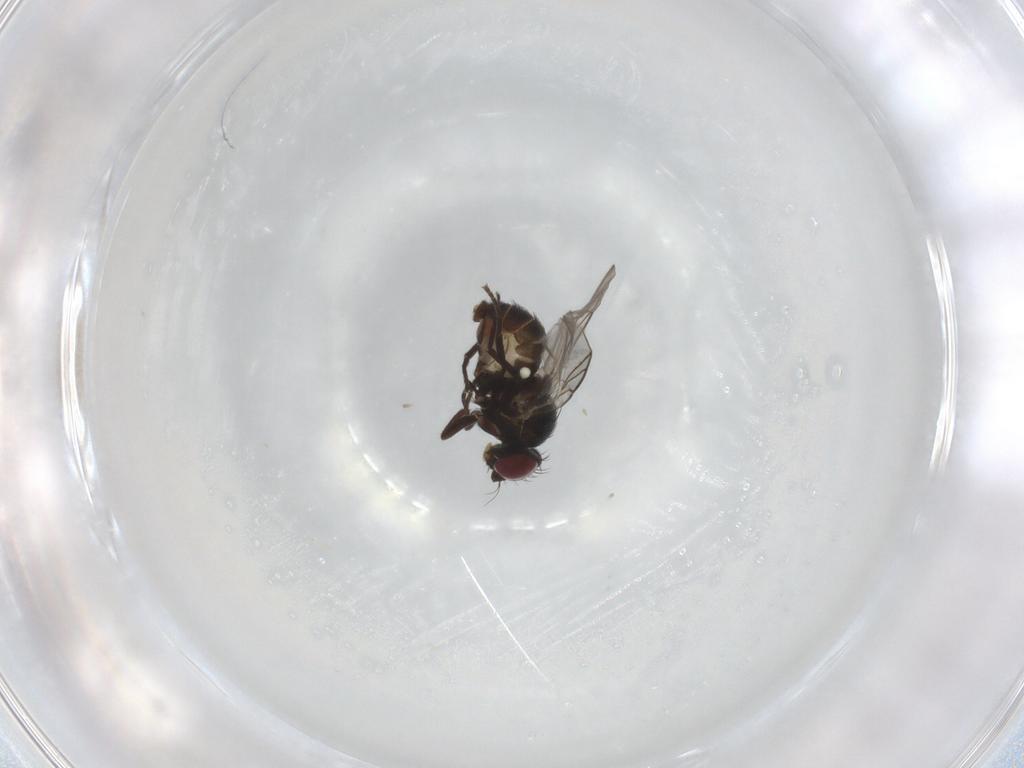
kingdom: Animalia
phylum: Arthropoda
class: Insecta
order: Diptera
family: Phoridae
